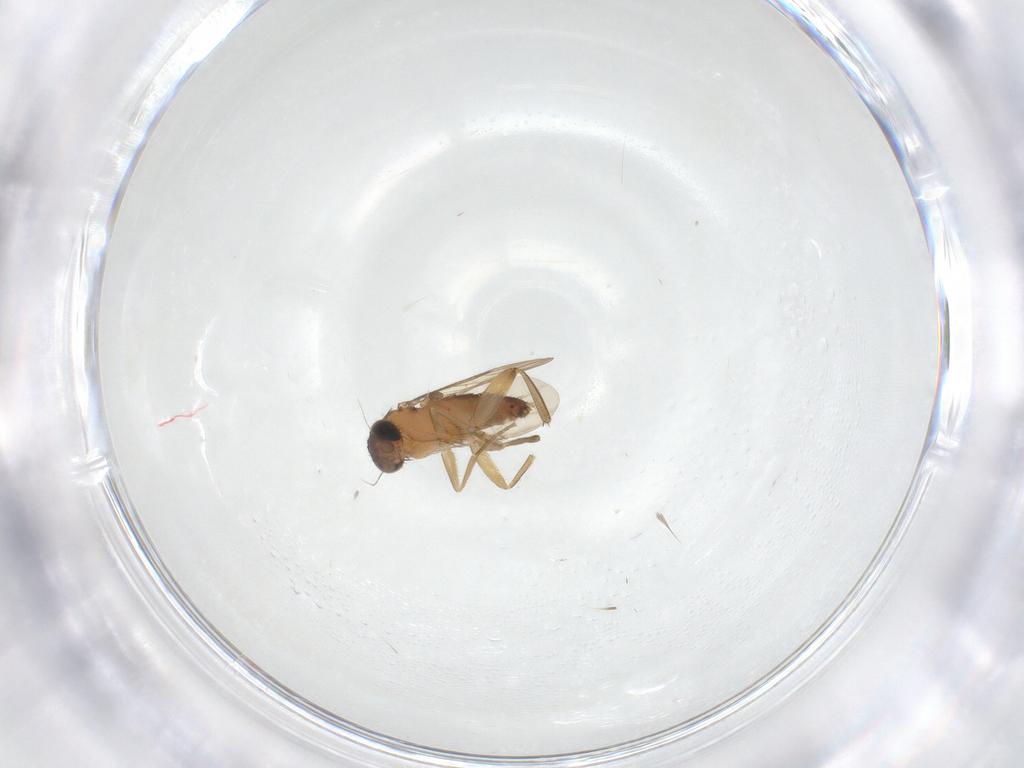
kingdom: Animalia
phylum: Arthropoda
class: Insecta
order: Diptera
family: Phoridae
